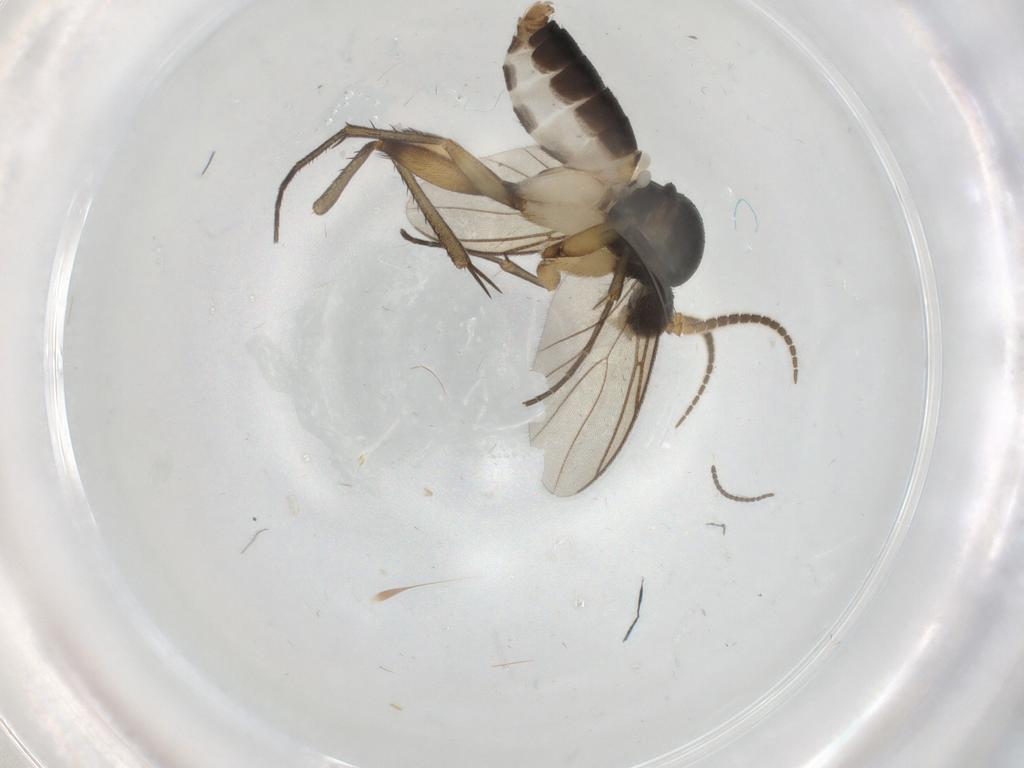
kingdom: Animalia
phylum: Arthropoda
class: Insecta
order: Diptera
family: Mycetophilidae
